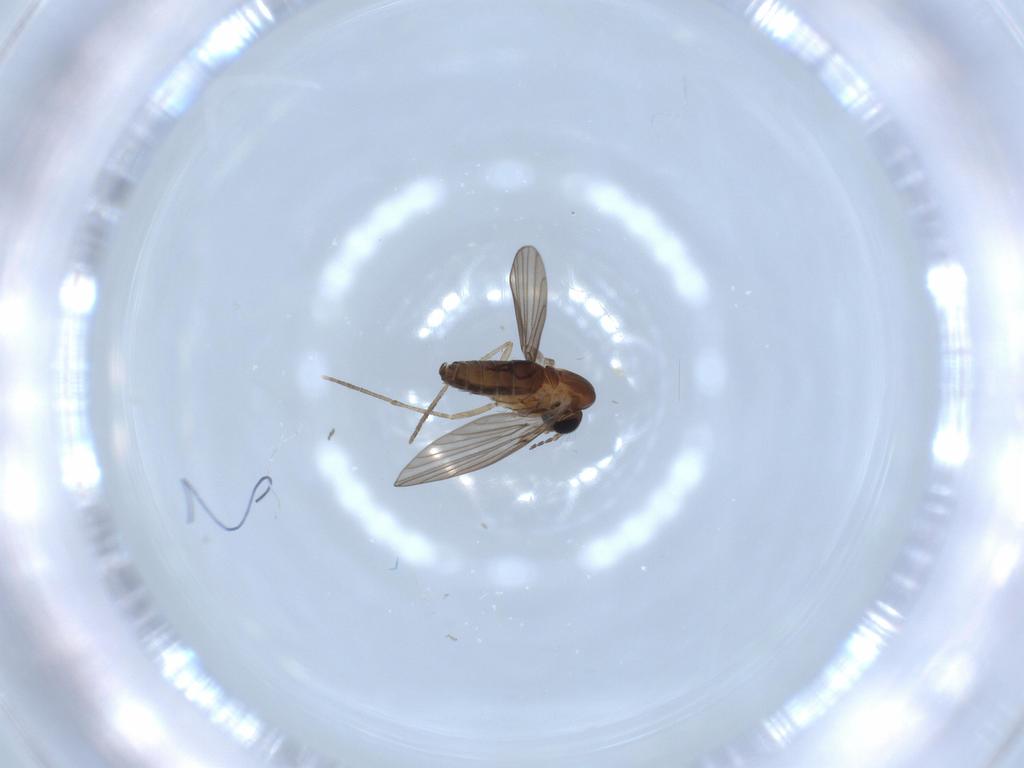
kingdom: Animalia
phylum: Arthropoda
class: Insecta
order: Diptera
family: Psychodidae
